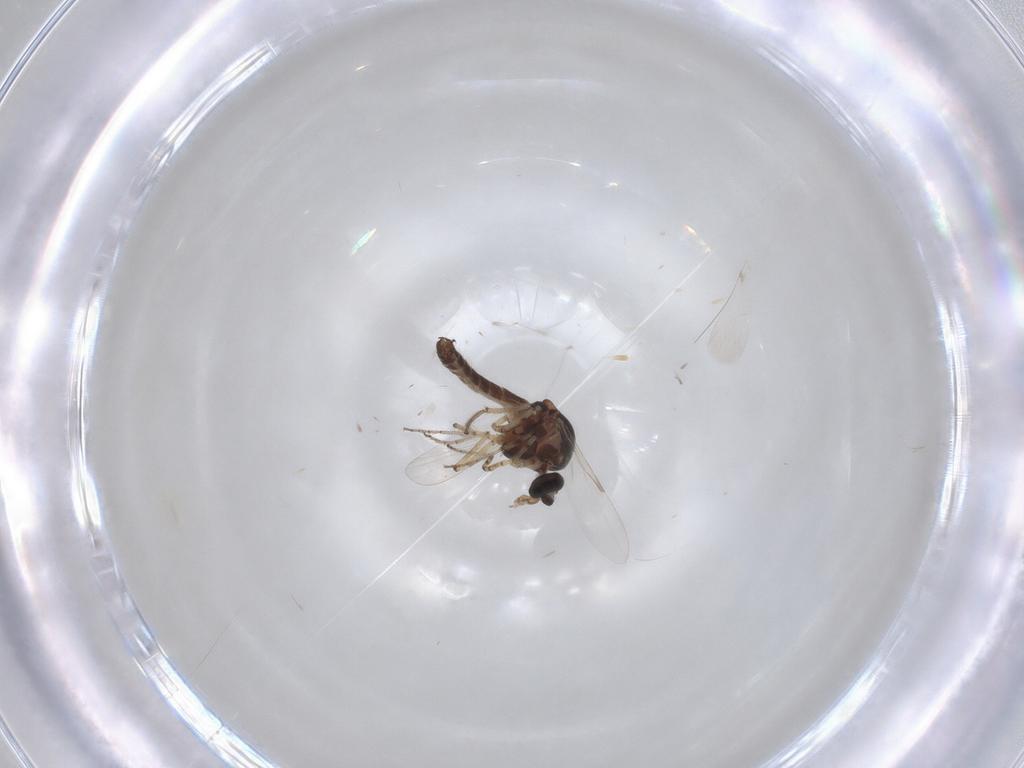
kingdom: Animalia
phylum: Arthropoda
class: Insecta
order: Diptera
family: Ceratopogonidae
